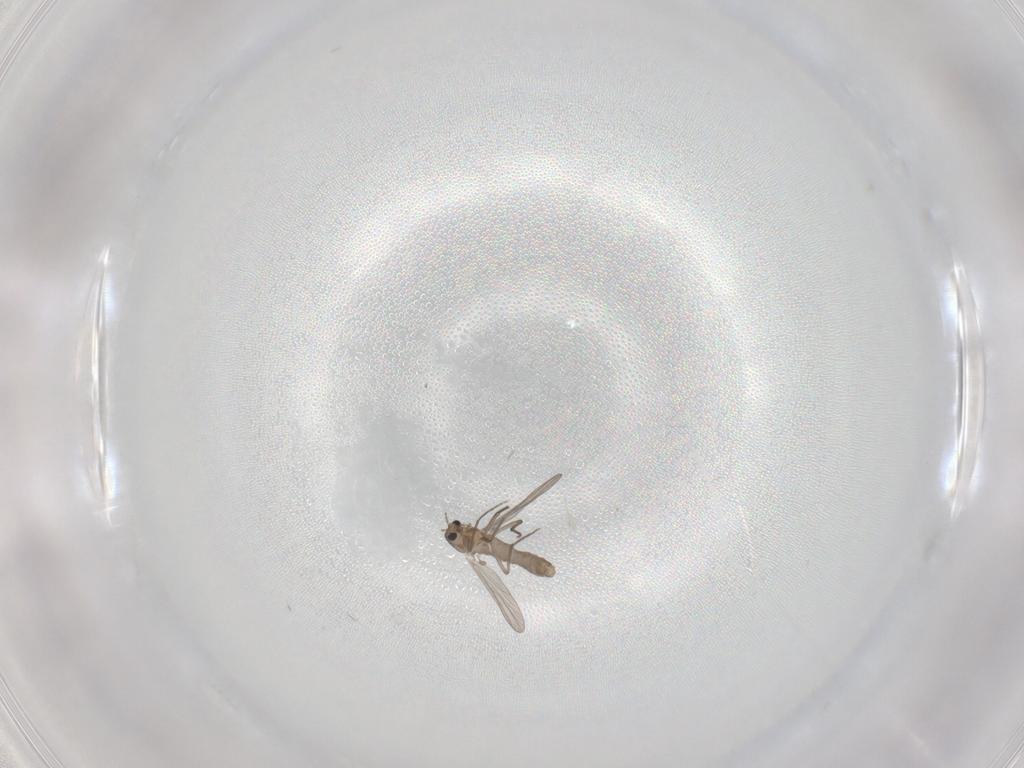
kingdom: Animalia
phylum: Arthropoda
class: Insecta
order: Diptera
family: Chironomidae
